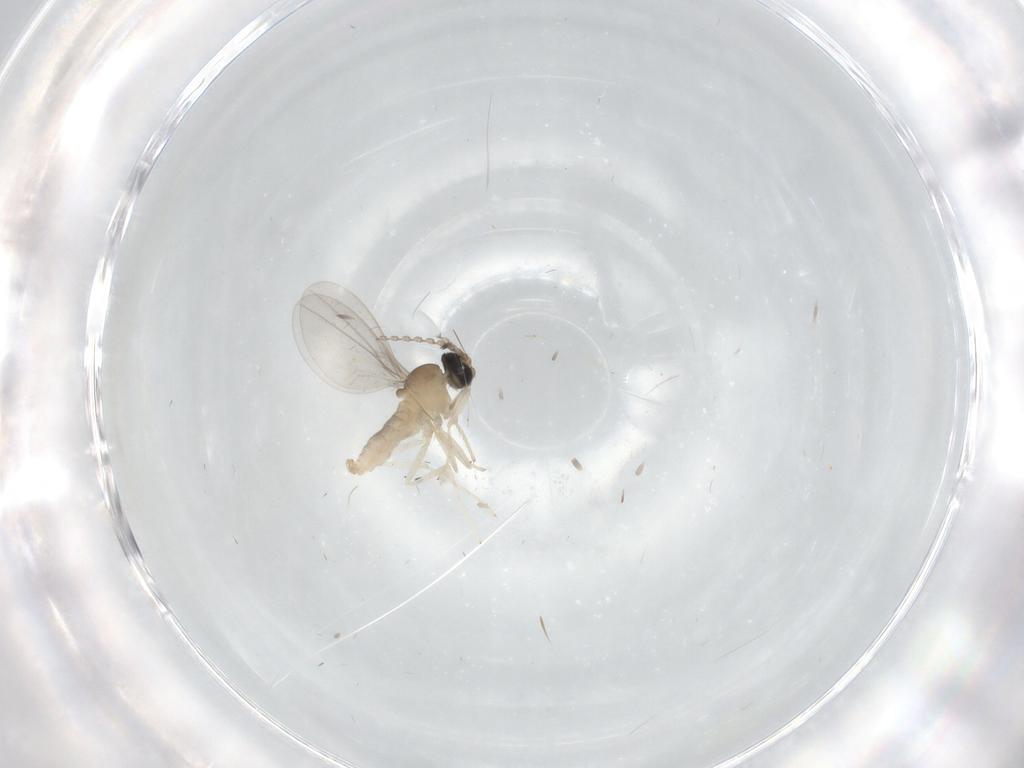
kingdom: Animalia
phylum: Arthropoda
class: Insecta
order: Diptera
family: Cecidomyiidae
